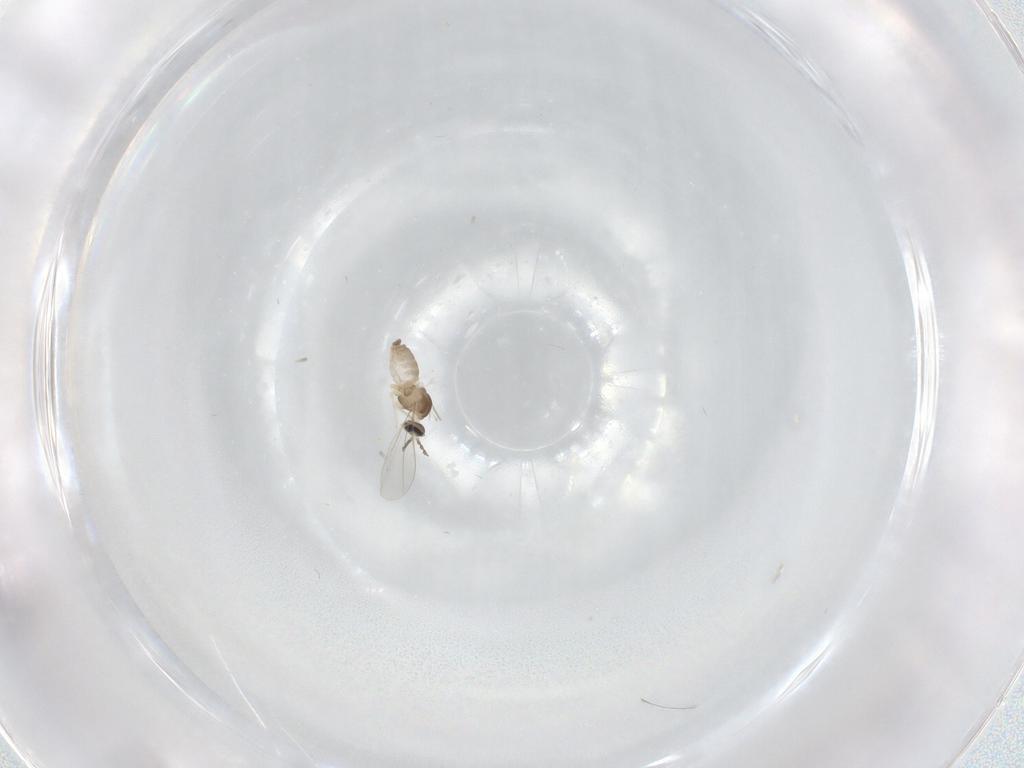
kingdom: Animalia
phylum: Arthropoda
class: Insecta
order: Diptera
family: Cecidomyiidae
